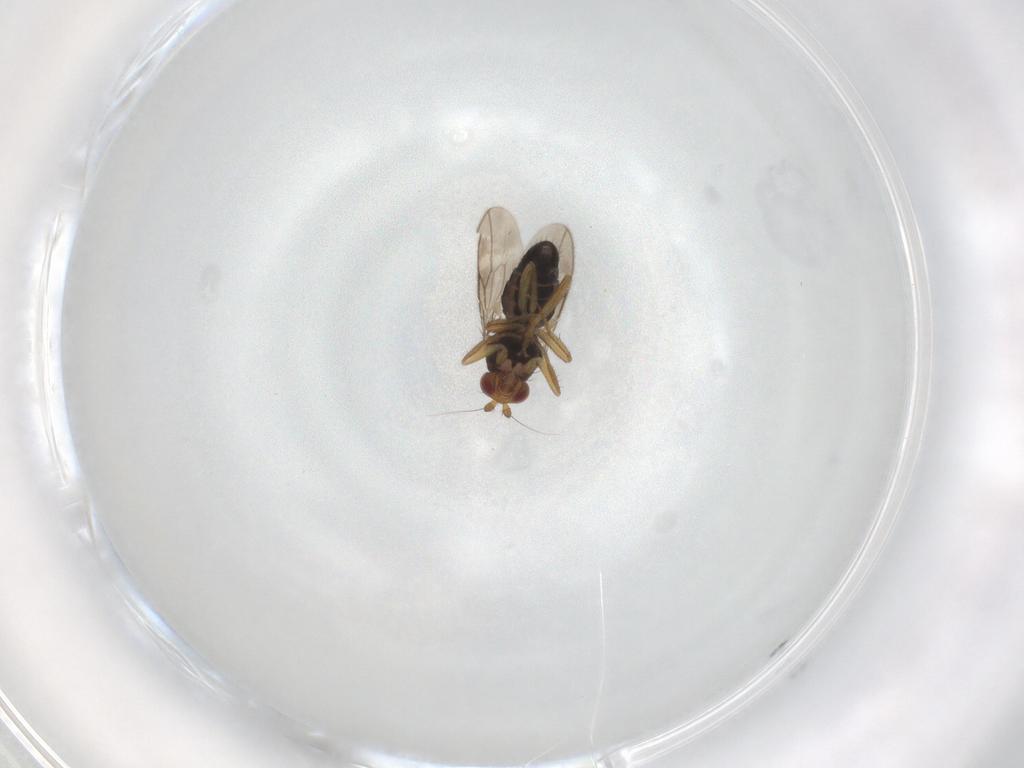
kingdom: Animalia
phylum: Arthropoda
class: Insecta
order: Diptera
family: Sphaeroceridae
